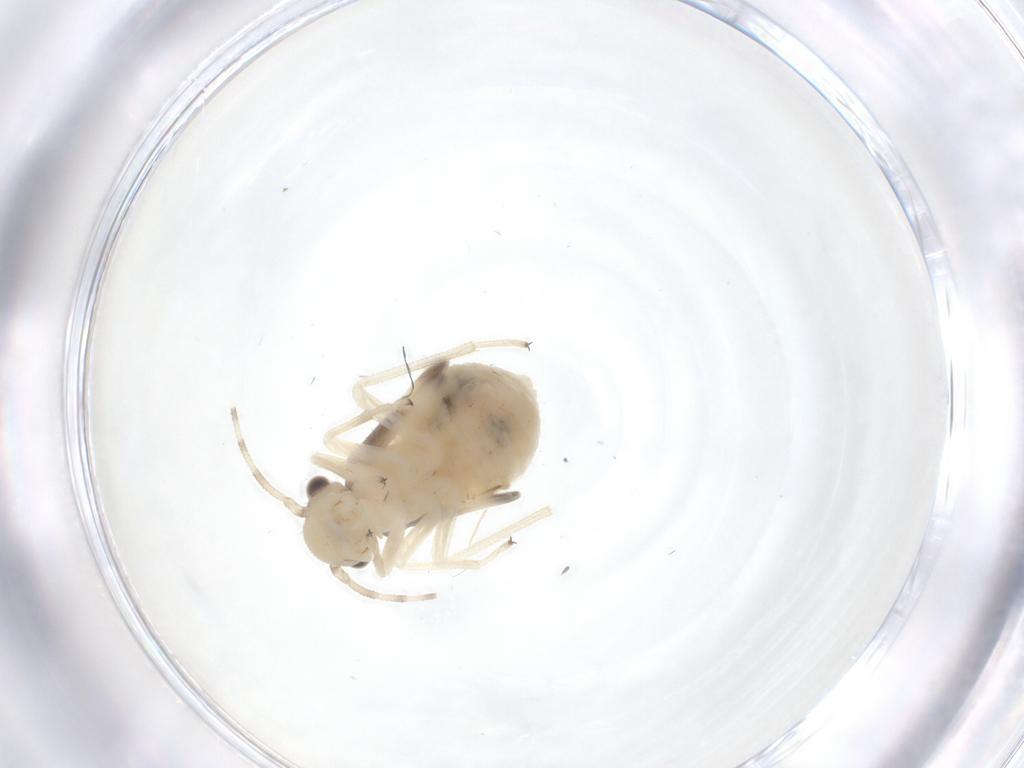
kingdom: Animalia
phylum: Arthropoda
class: Insecta
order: Psocodea
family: Amphipsocidae
